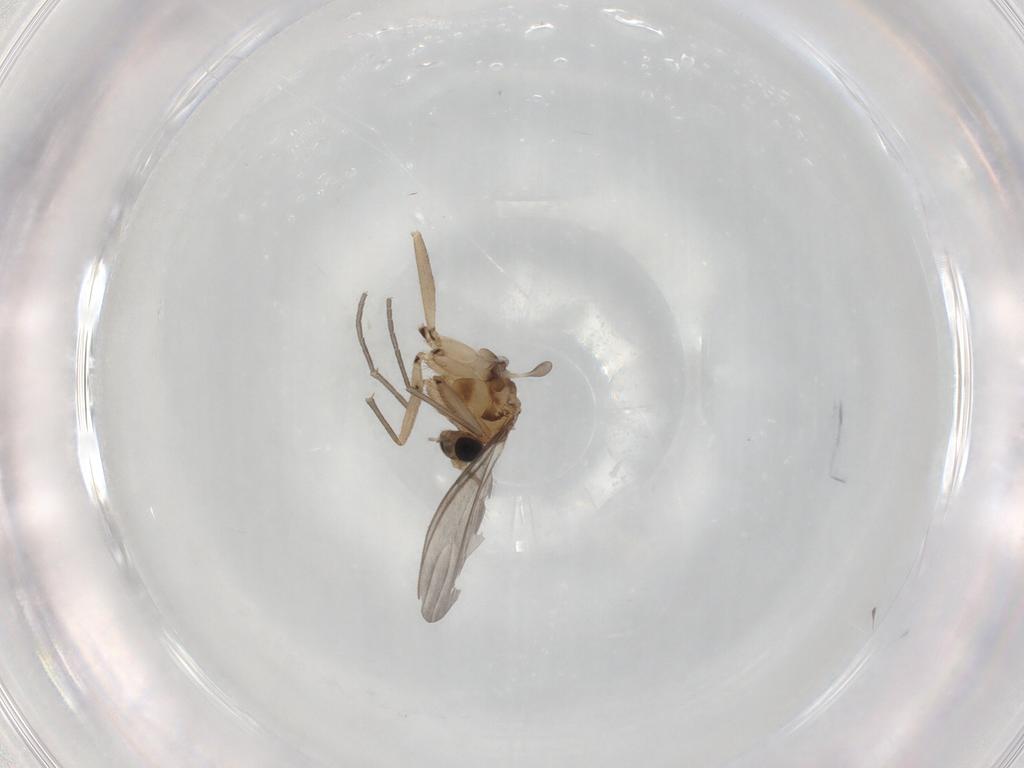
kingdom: Animalia
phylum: Arthropoda
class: Insecta
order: Diptera
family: Sciaridae
